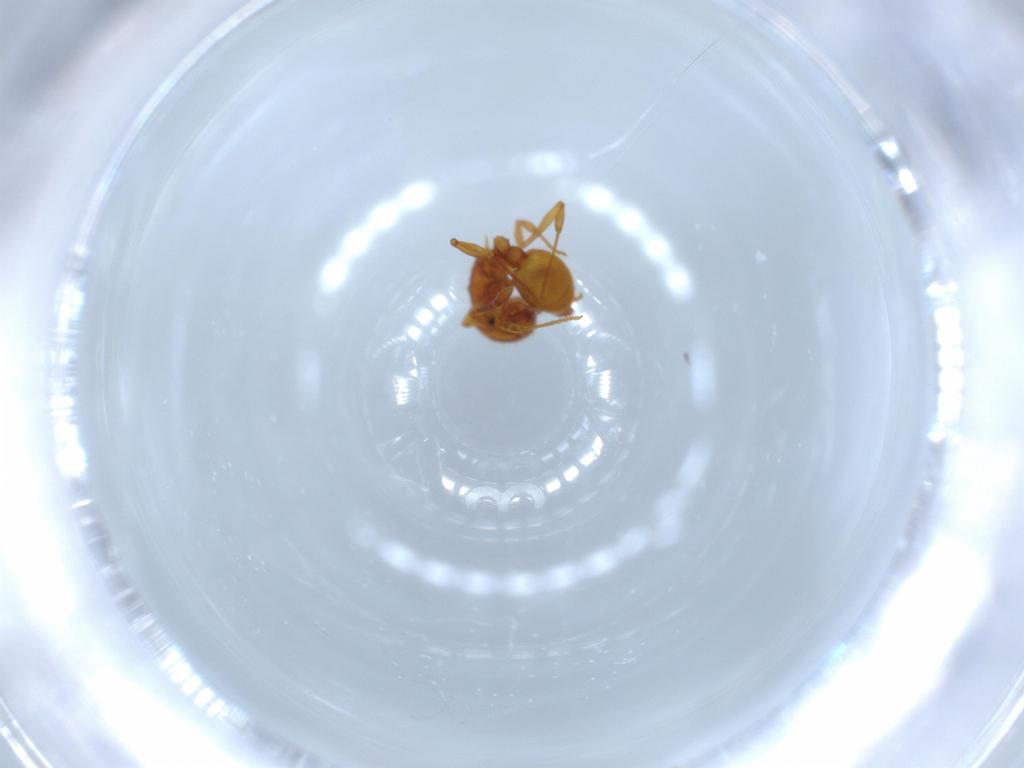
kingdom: Animalia
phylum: Arthropoda
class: Insecta
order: Hymenoptera
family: Formicidae
